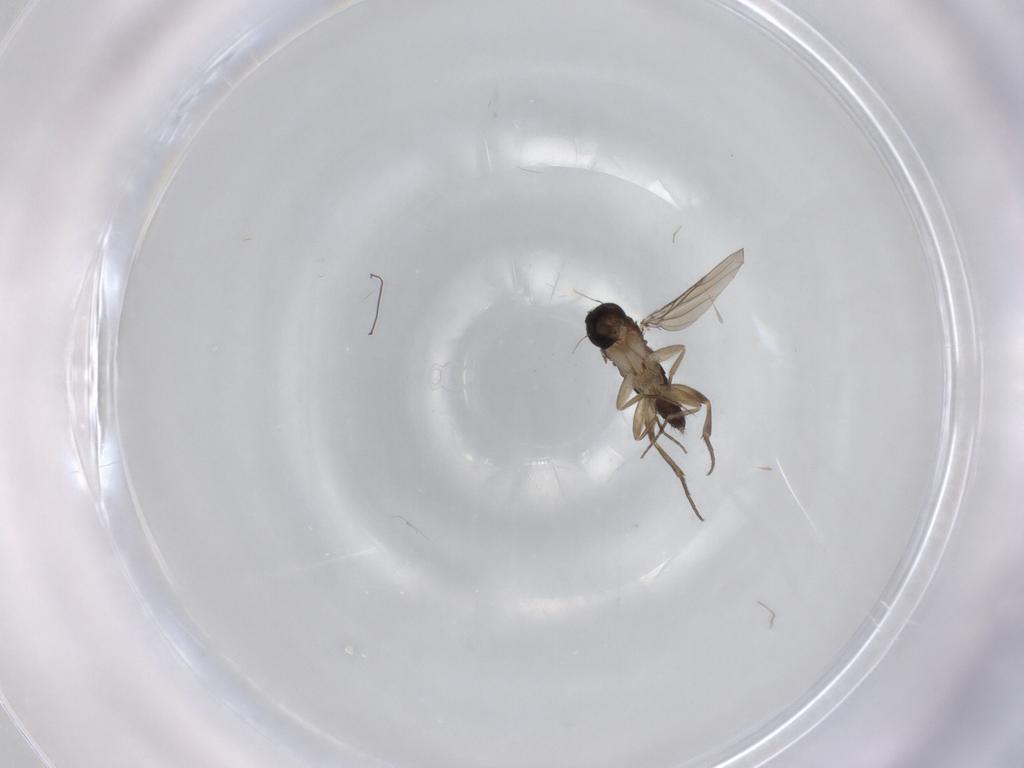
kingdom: Animalia
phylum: Arthropoda
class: Insecta
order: Diptera
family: Phoridae
